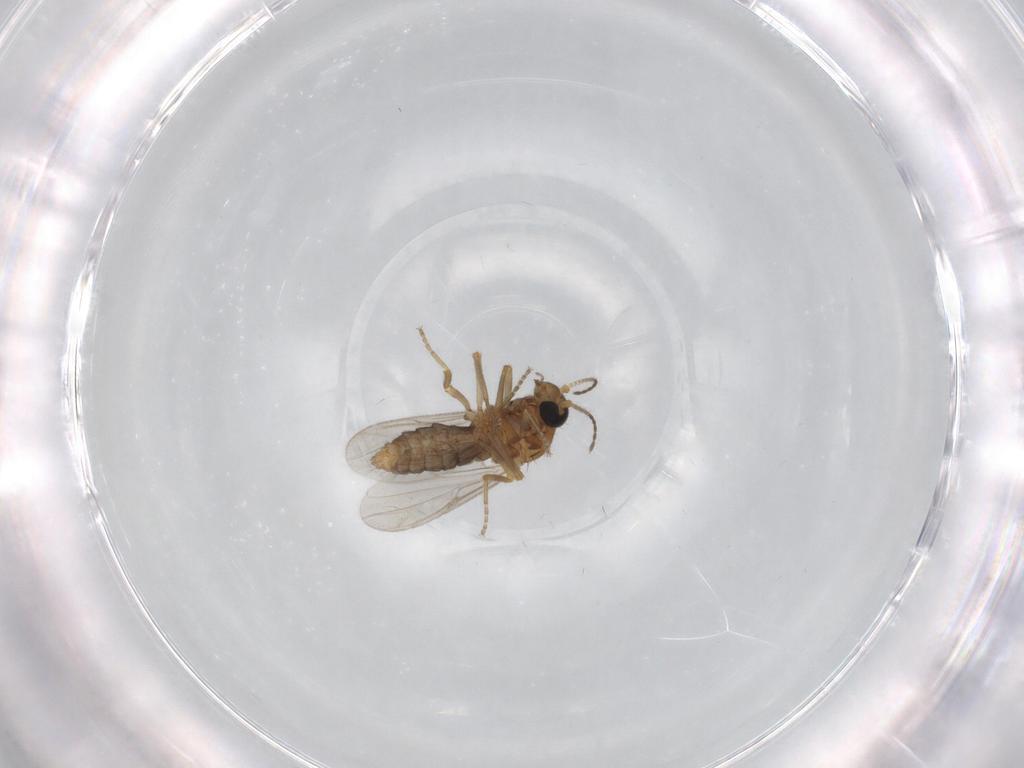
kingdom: Animalia
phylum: Arthropoda
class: Insecta
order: Diptera
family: Ceratopogonidae
